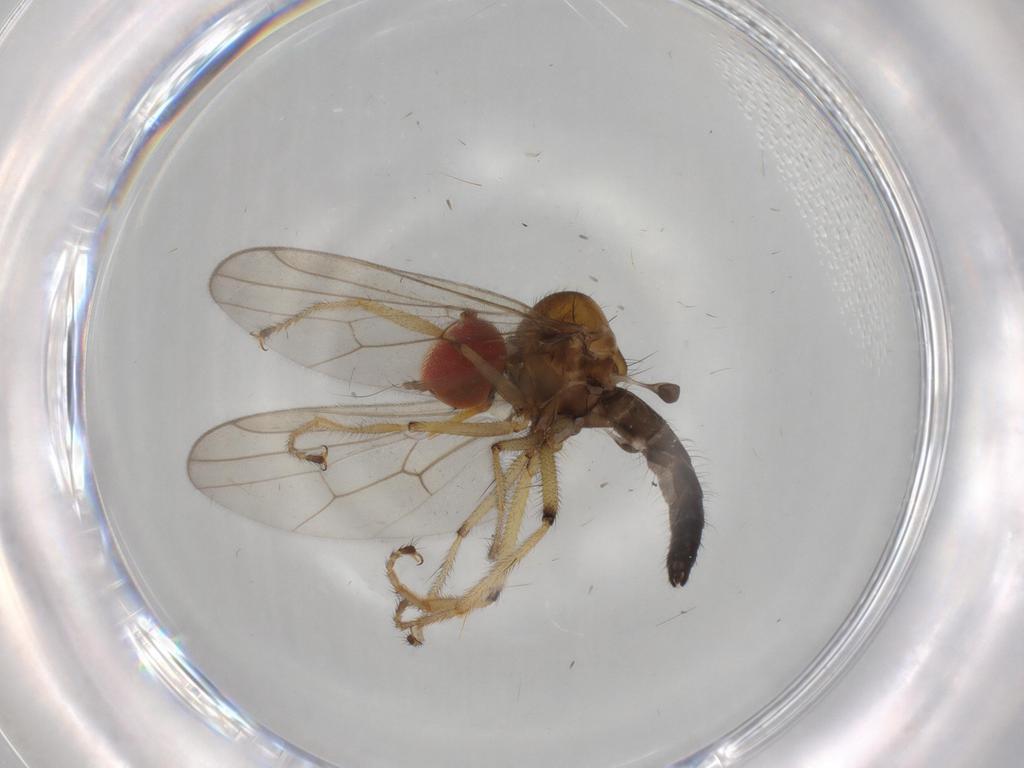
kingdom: Animalia
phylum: Arthropoda
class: Insecta
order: Diptera
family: Hybotidae
